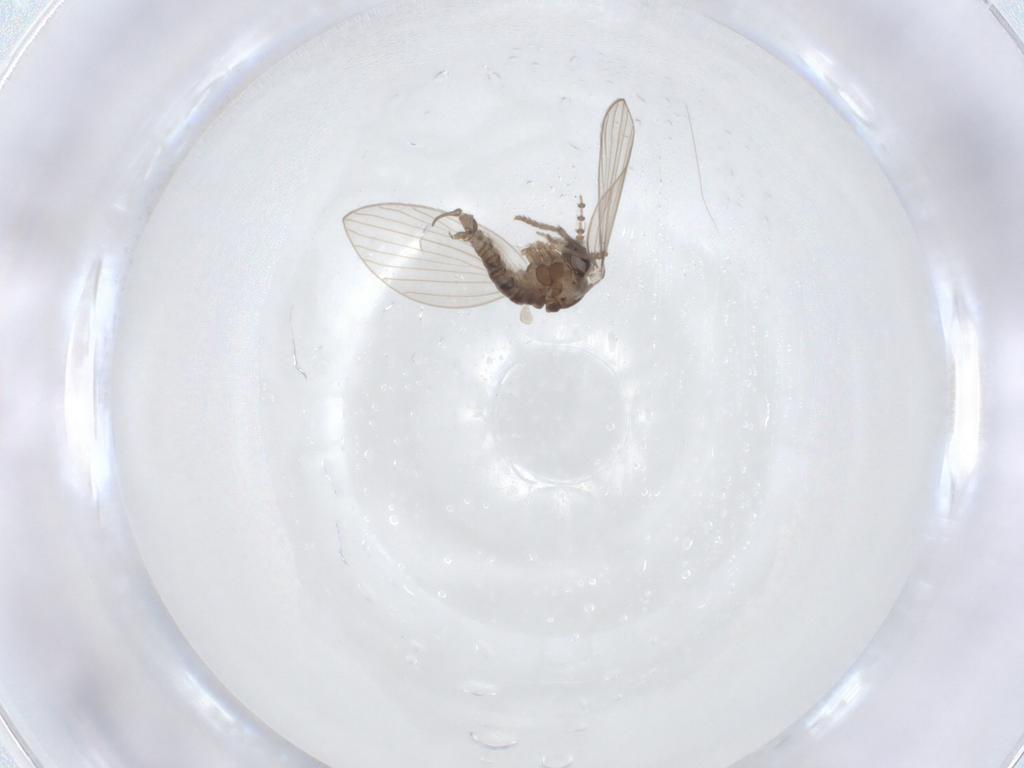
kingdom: Animalia
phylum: Arthropoda
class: Insecta
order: Diptera
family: Psychodidae
